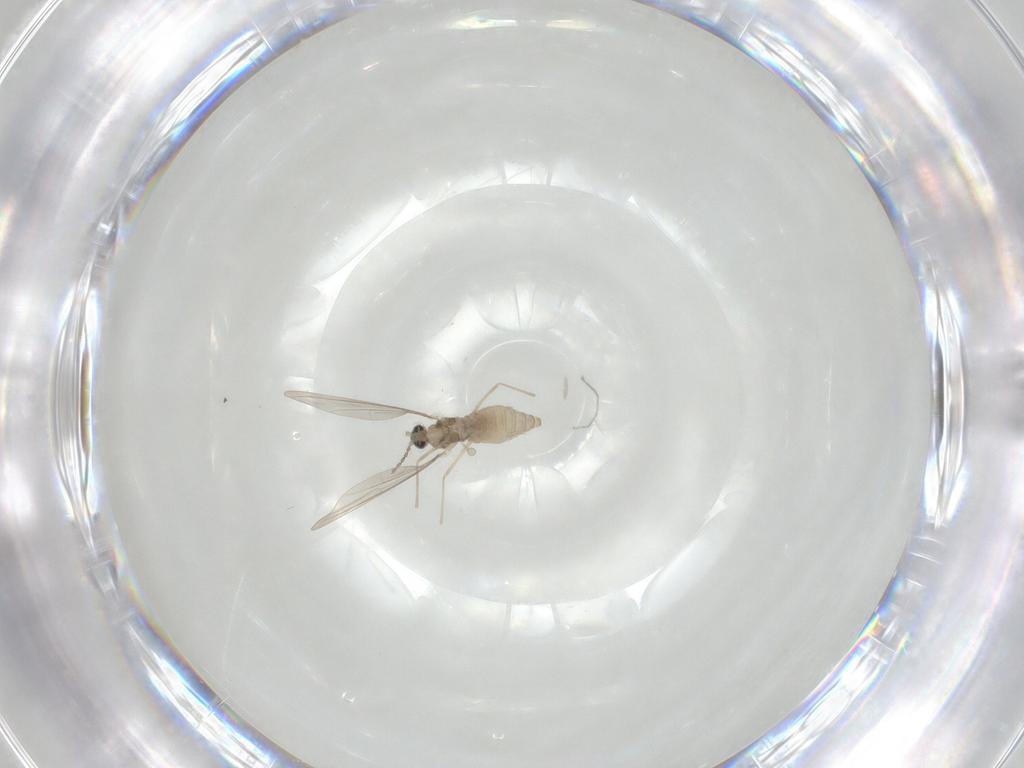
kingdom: Animalia
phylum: Arthropoda
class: Insecta
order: Diptera
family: Cecidomyiidae
